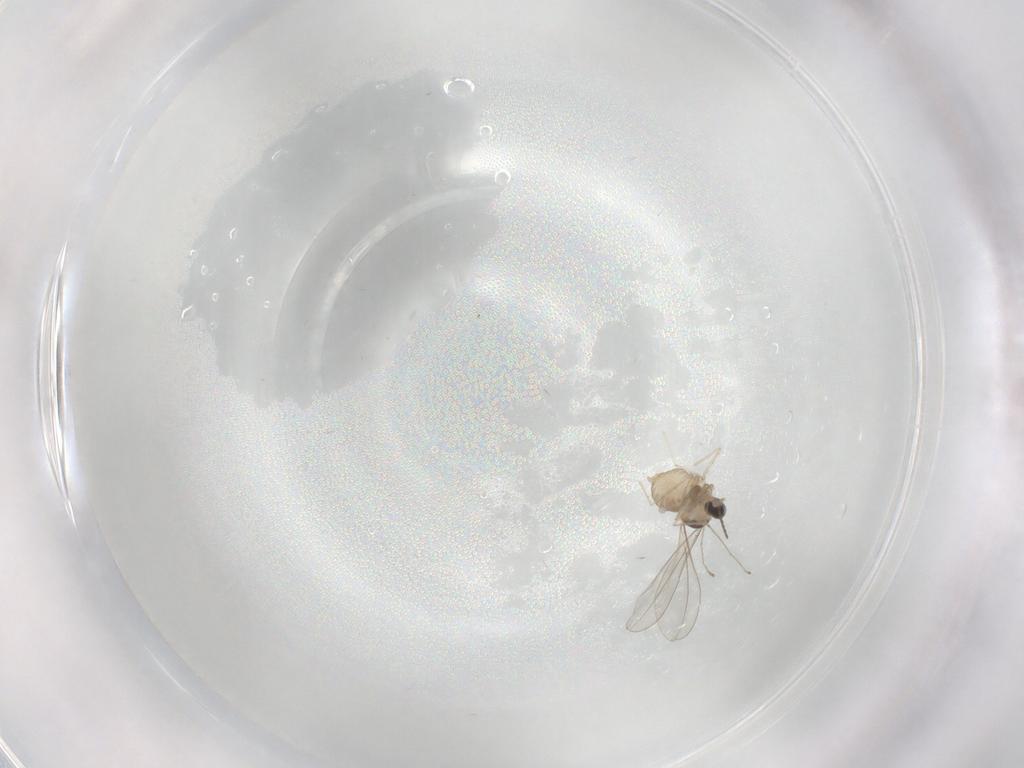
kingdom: Animalia
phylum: Arthropoda
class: Insecta
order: Diptera
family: Cecidomyiidae
